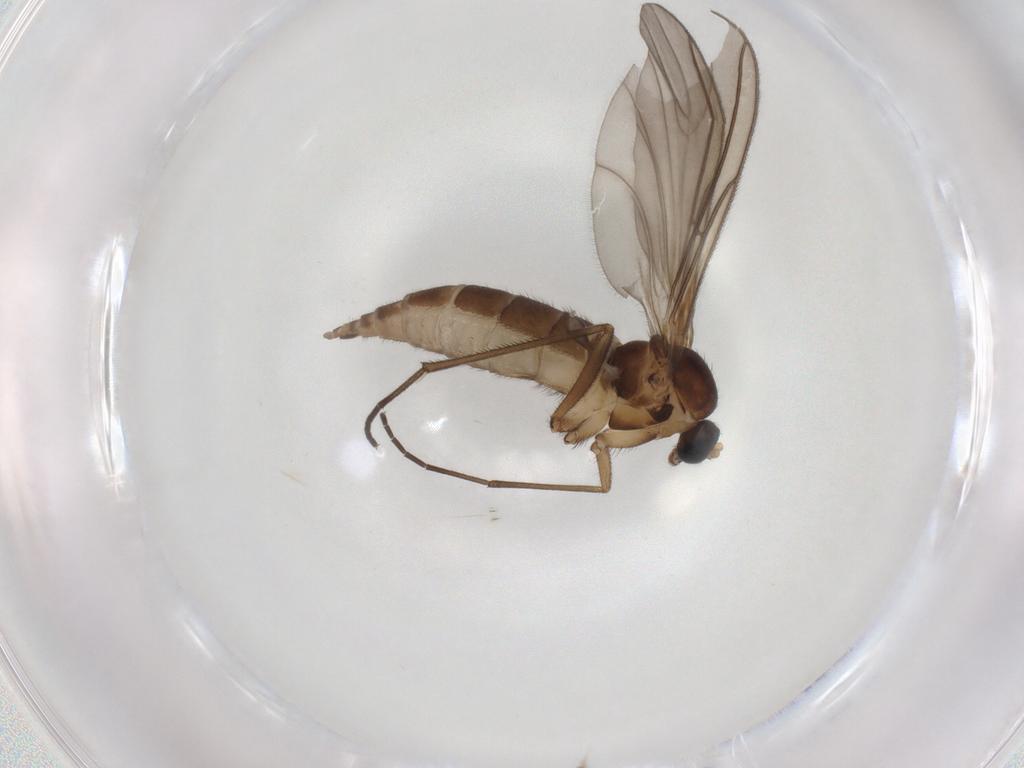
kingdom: Animalia
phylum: Arthropoda
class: Insecta
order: Diptera
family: Sciaridae
